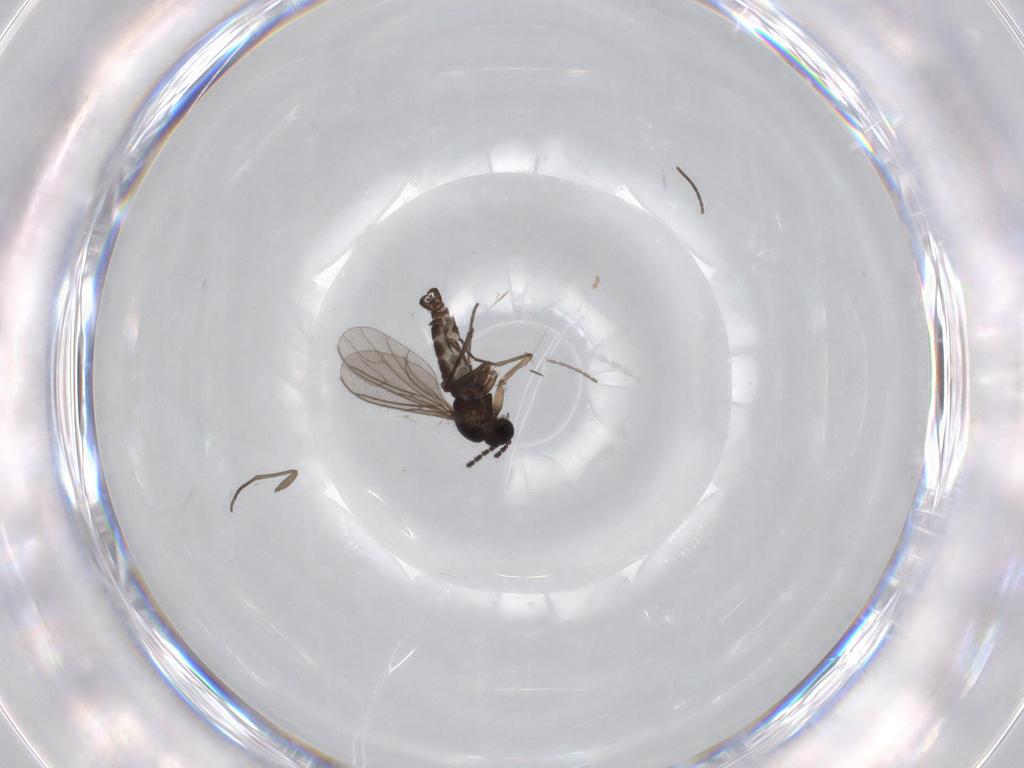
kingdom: Animalia
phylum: Arthropoda
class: Insecta
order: Diptera
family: Sciaridae
